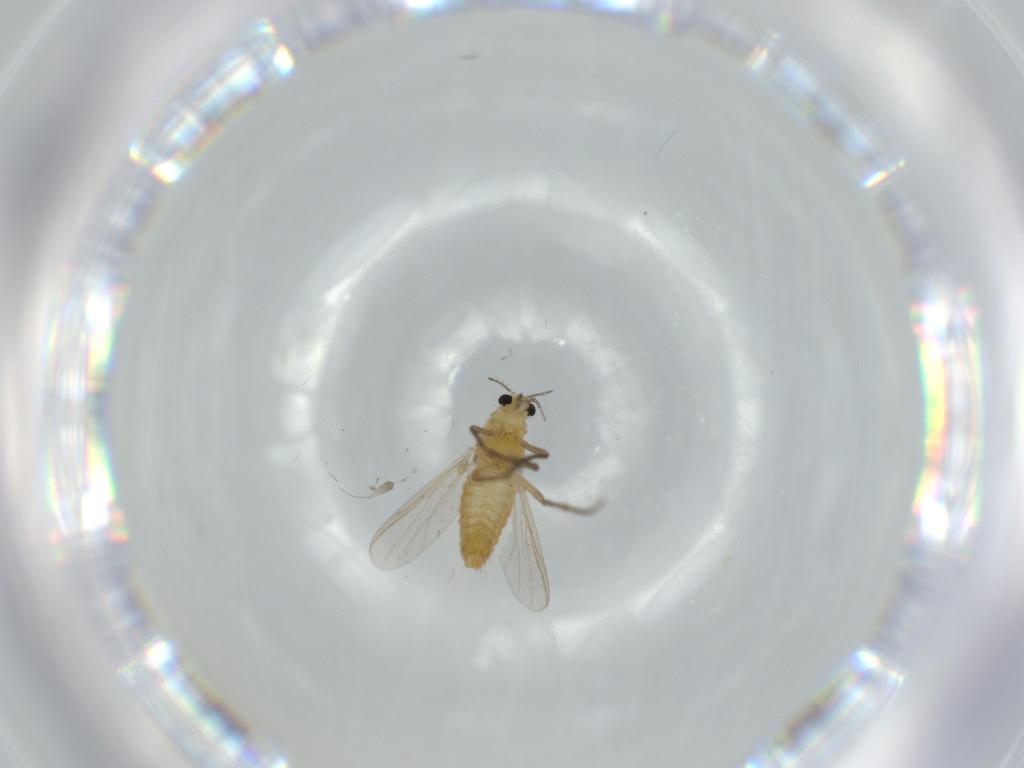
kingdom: Animalia
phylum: Arthropoda
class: Insecta
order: Diptera
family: Chironomidae
